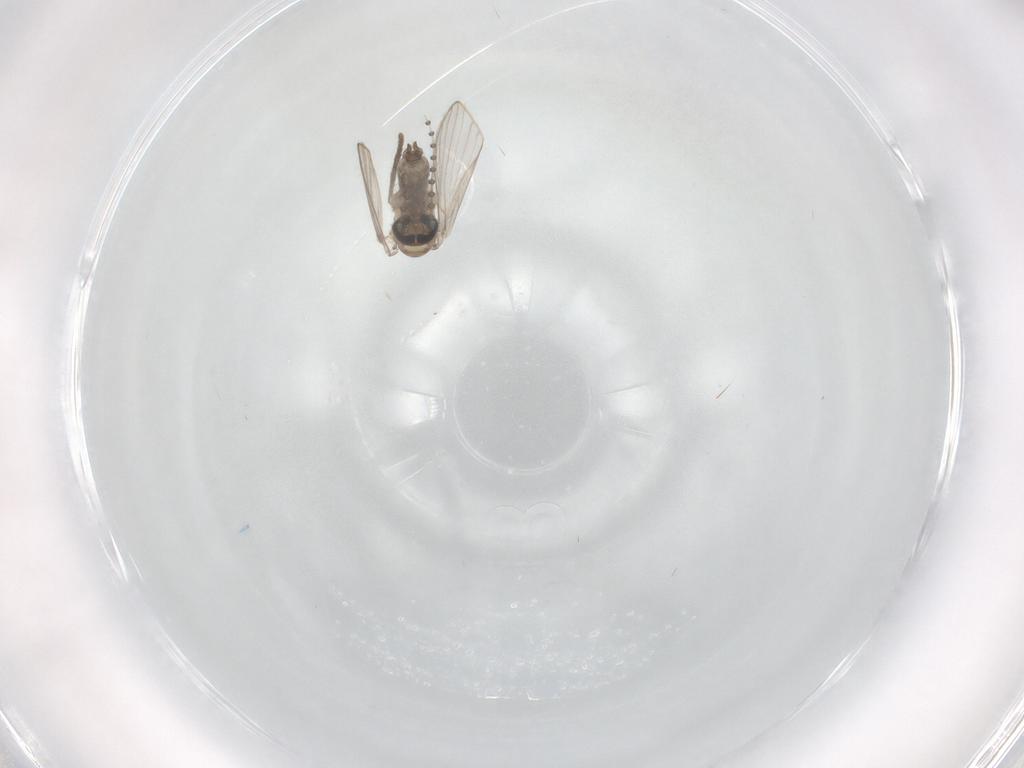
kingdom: Animalia
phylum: Arthropoda
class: Insecta
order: Diptera
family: Psychodidae
